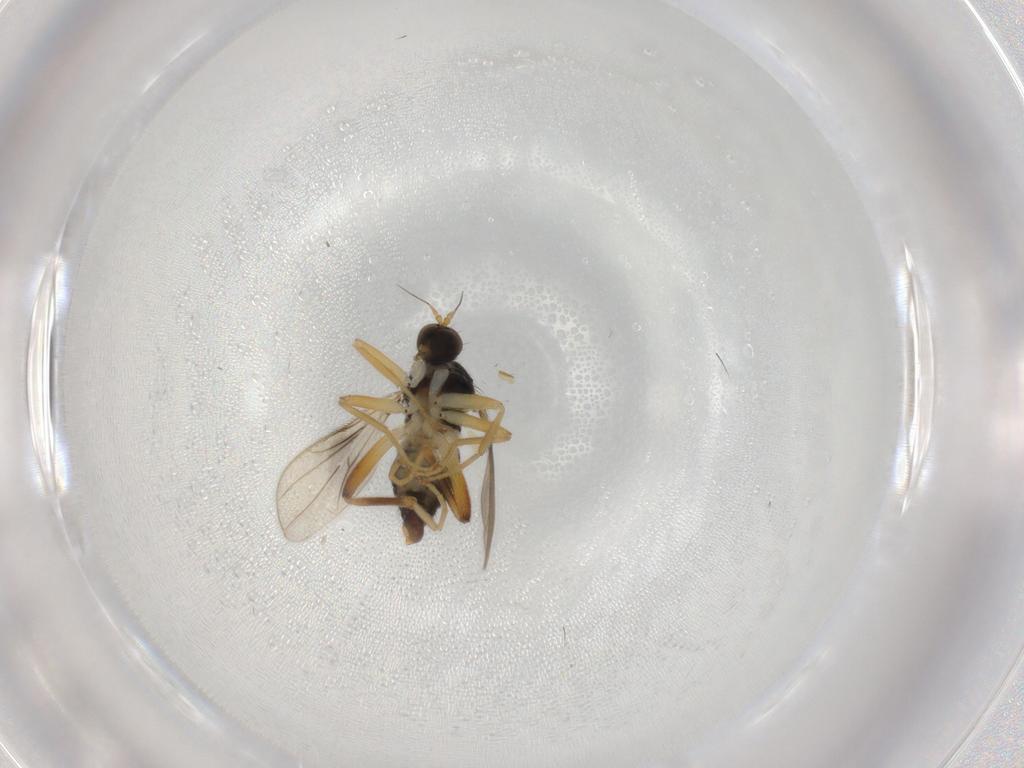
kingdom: Animalia
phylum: Arthropoda
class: Insecta
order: Diptera
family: Hybotidae
